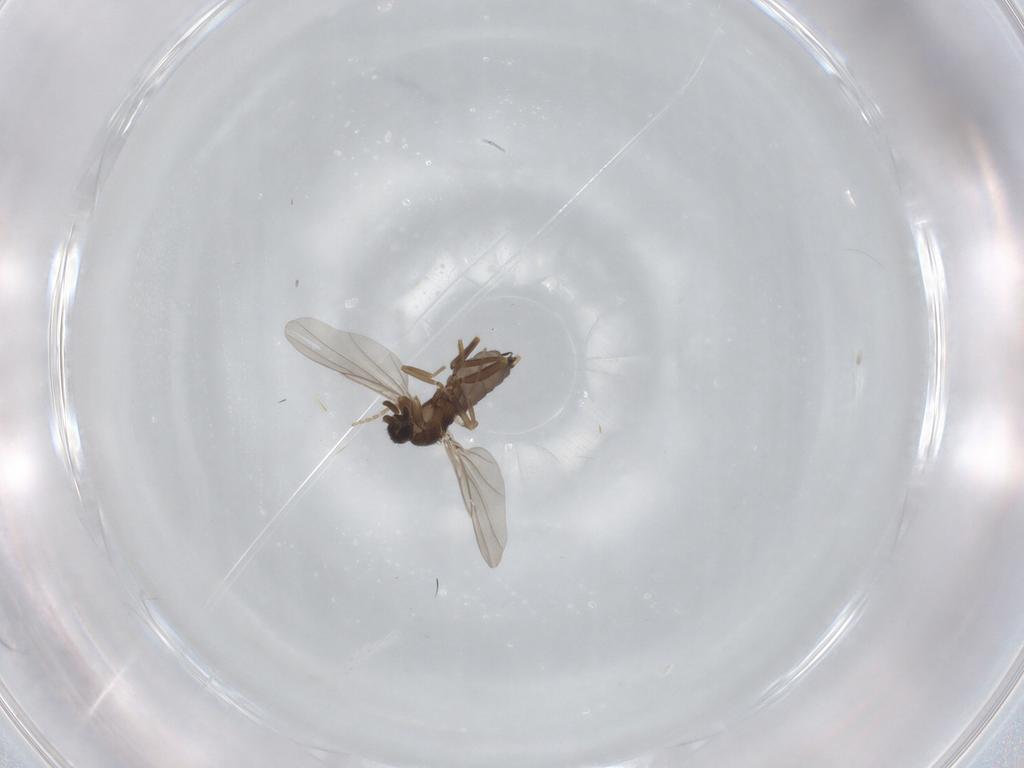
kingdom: Animalia
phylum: Arthropoda
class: Insecta
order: Diptera
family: Phoridae
